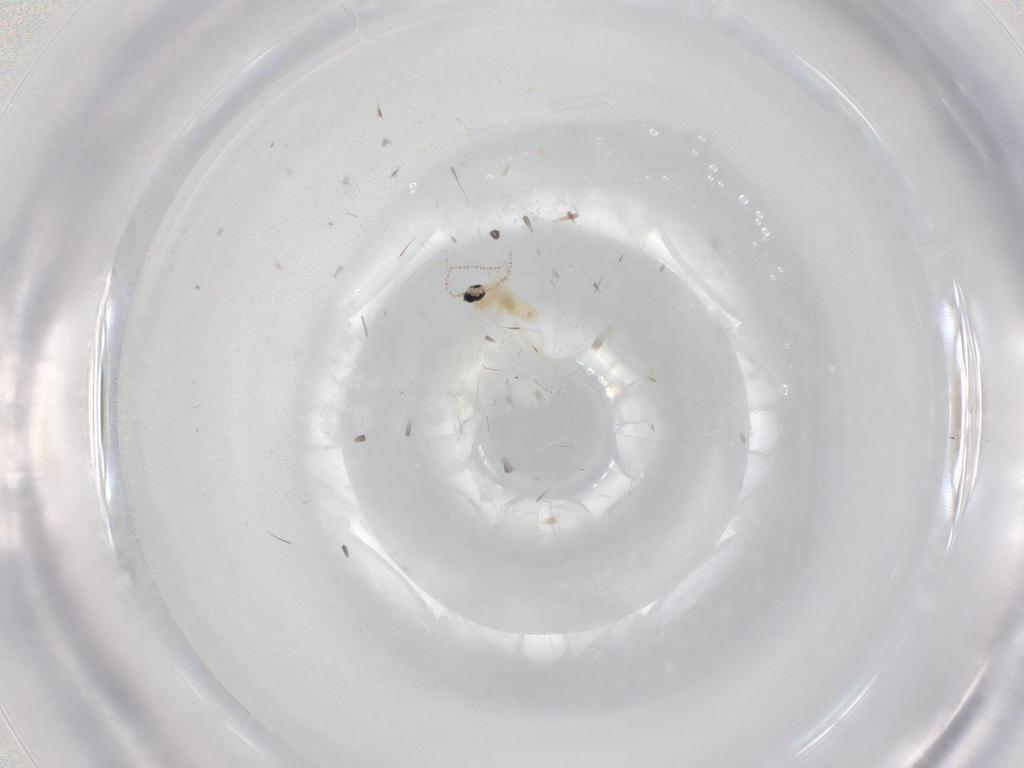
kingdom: Animalia
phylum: Arthropoda
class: Insecta
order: Diptera
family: Cecidomyiidae
